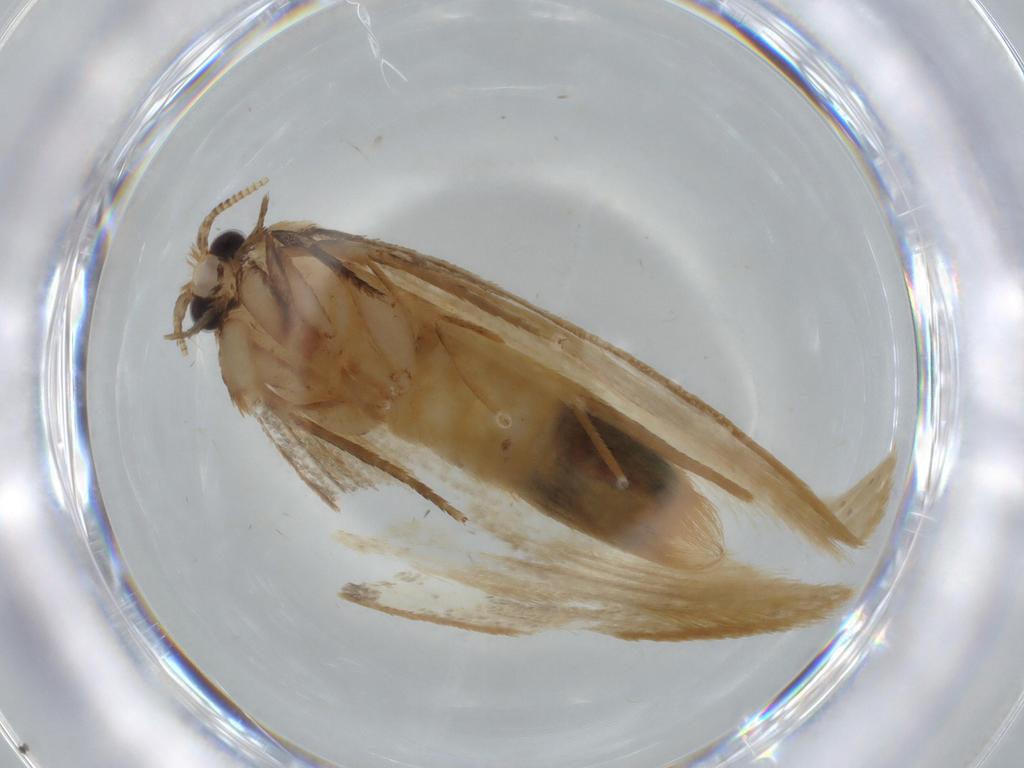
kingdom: Animalia
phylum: Arthropoda
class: Insecta
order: Lepidoptera
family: Tineidae
